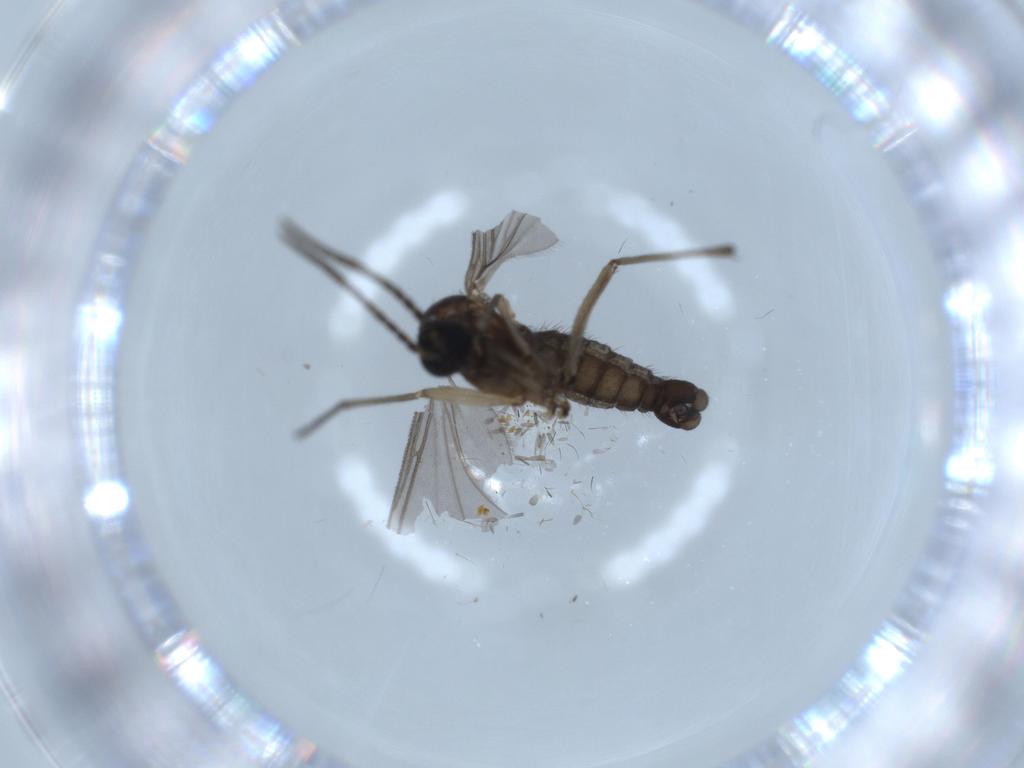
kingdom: Animalia
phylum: Arthropoda
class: Insecta
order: Diptera
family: Sciaridae
